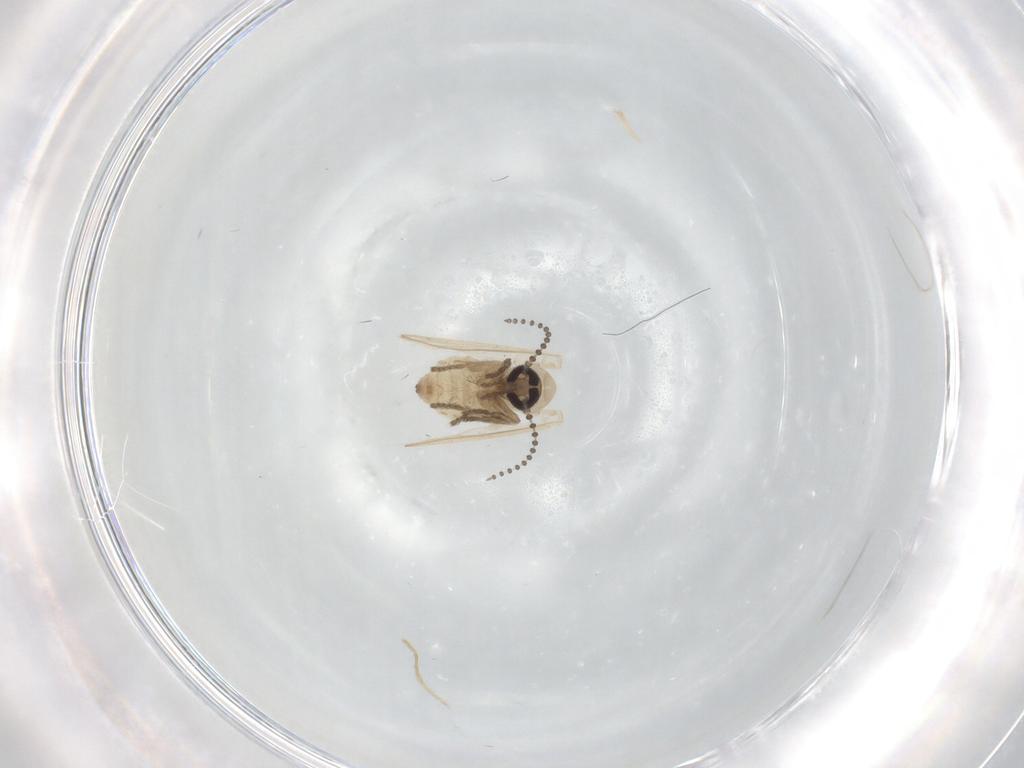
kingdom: Animalia
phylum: Arthropoda
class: Insecta
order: Diptera
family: Psychodidae
